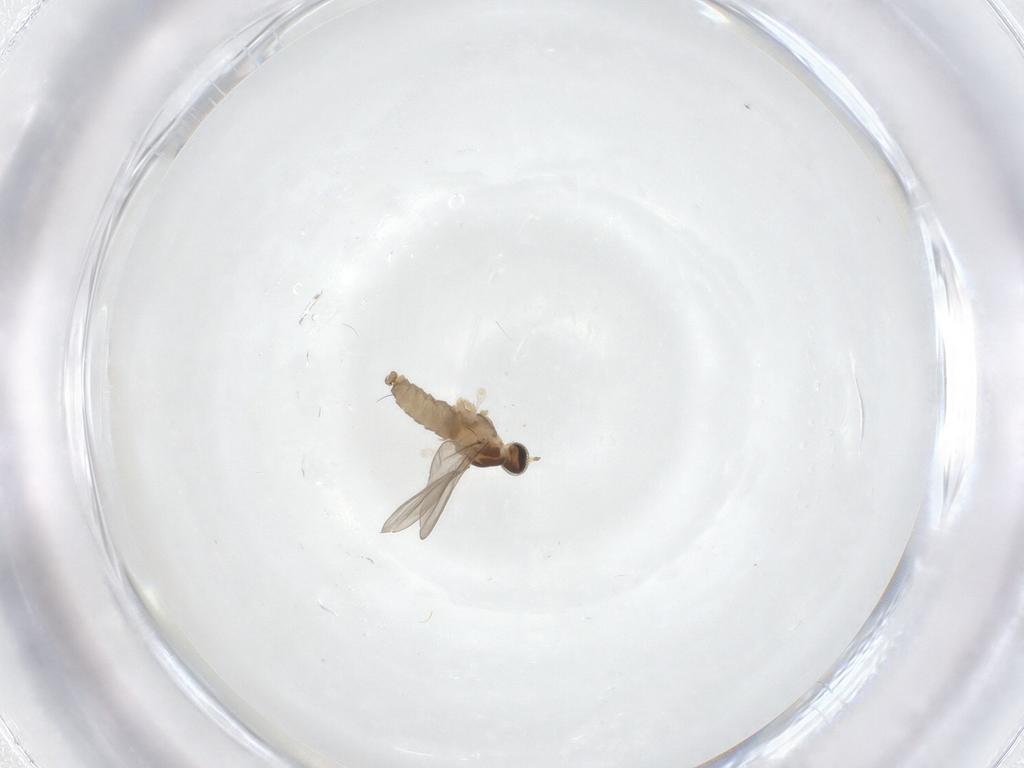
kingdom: Animalia
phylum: Arthropoda
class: Insecta
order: Diptera
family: Cecidomyiidae
